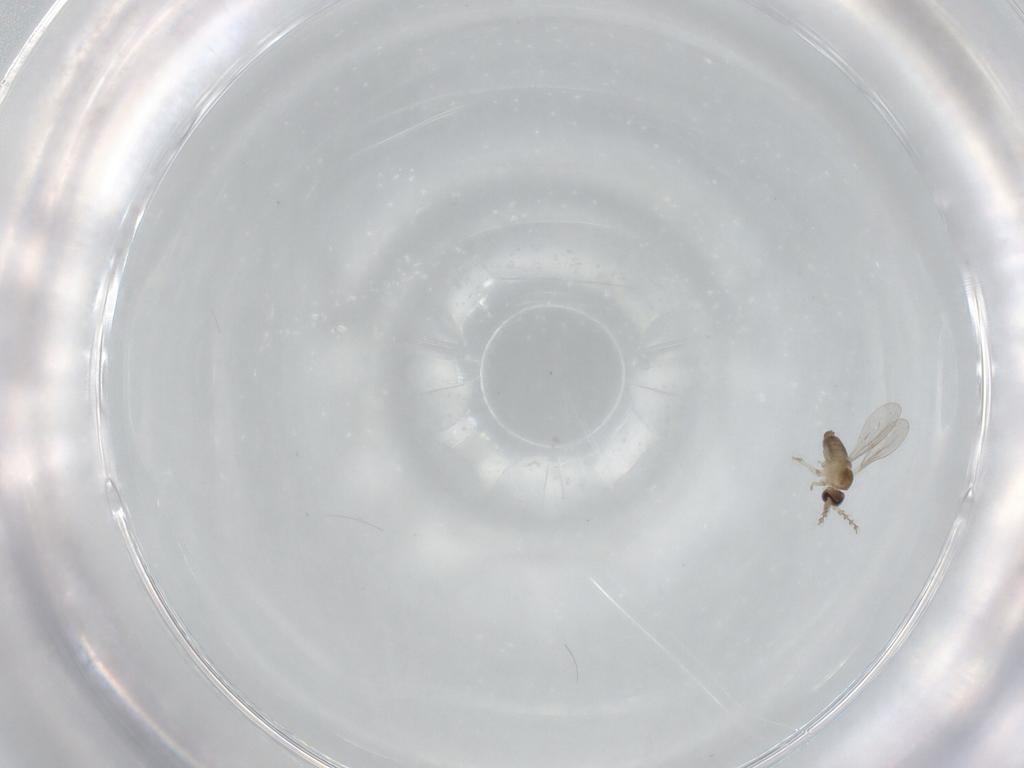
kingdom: Animalia
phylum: Arthropoda
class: Insecta
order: Diptera
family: Cecidomyiidae
